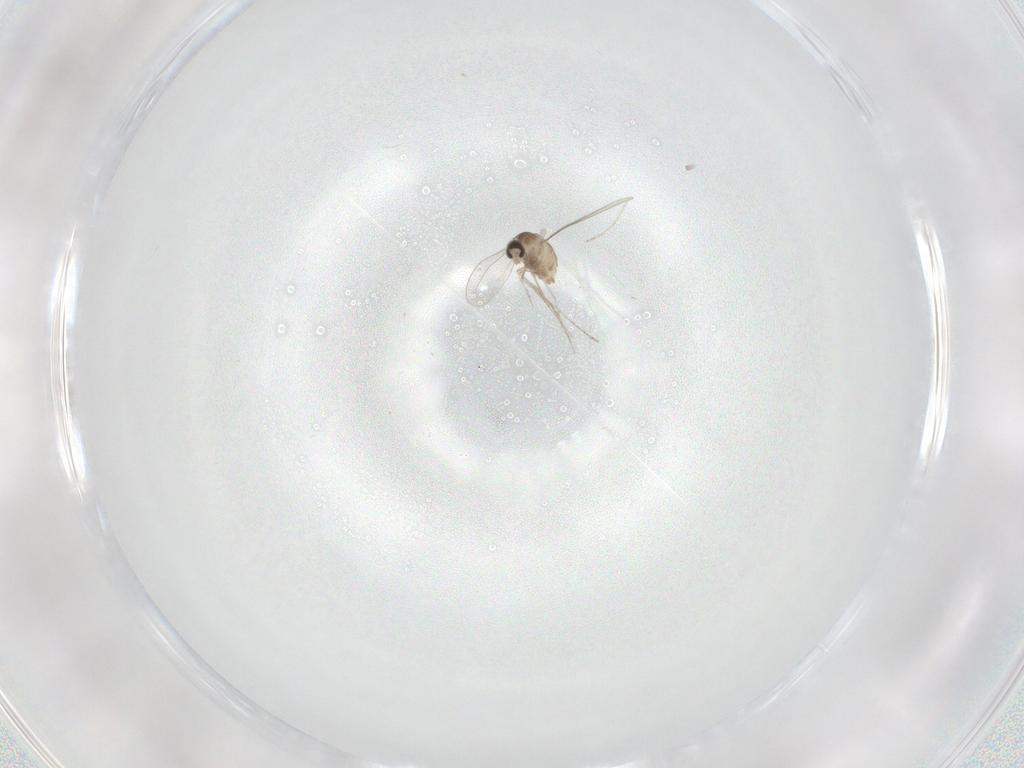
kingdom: Animalia
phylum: Arthropoda
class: Insecta
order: Diptera
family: Cecidomyiidae
